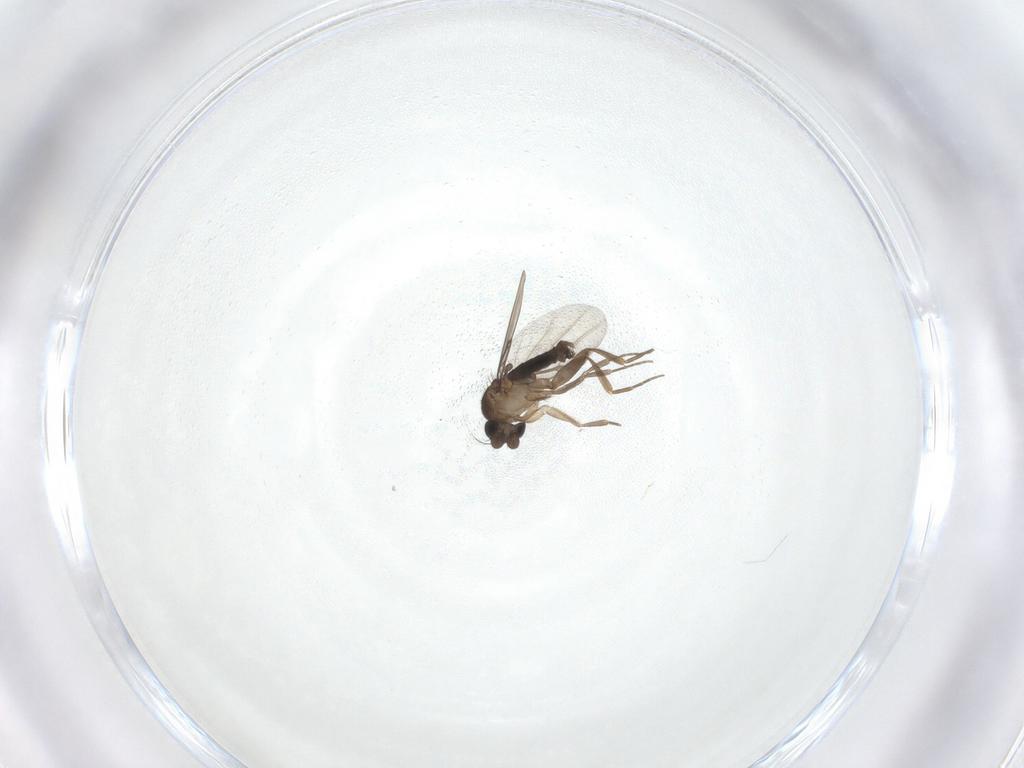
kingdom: Animalia
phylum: Arthropoda
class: Insecta
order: Diptera
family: Phoridae
